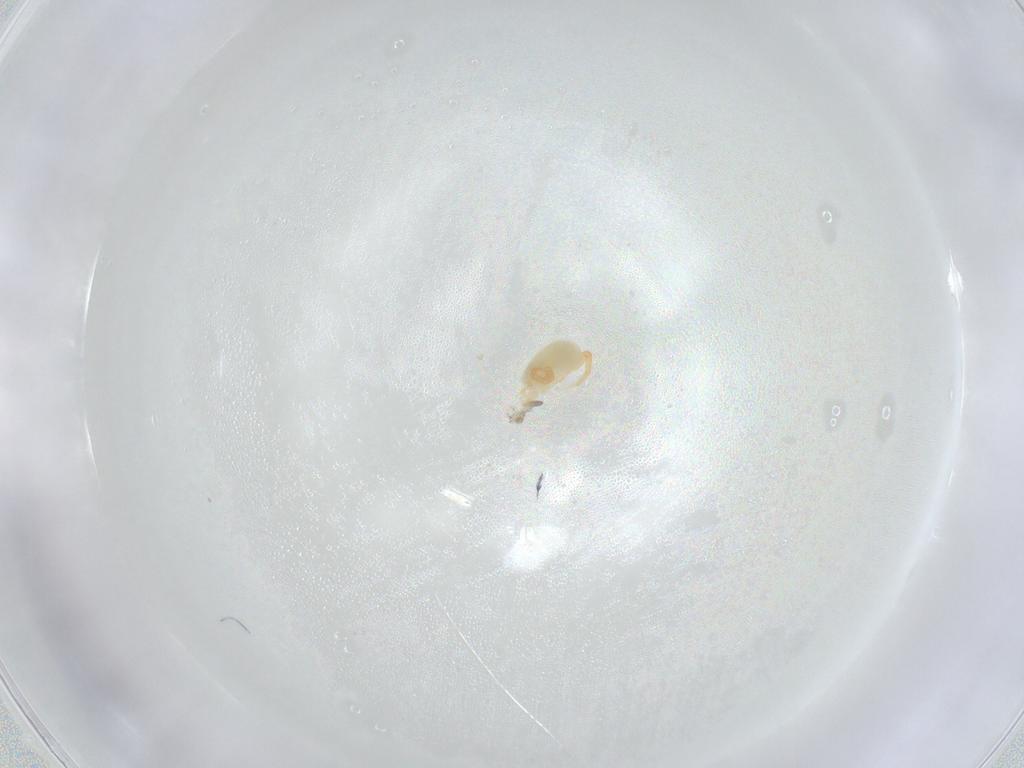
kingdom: Animalia
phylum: Arthropoda
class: Arachnida
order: Trombidiformes
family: Eupodidae
